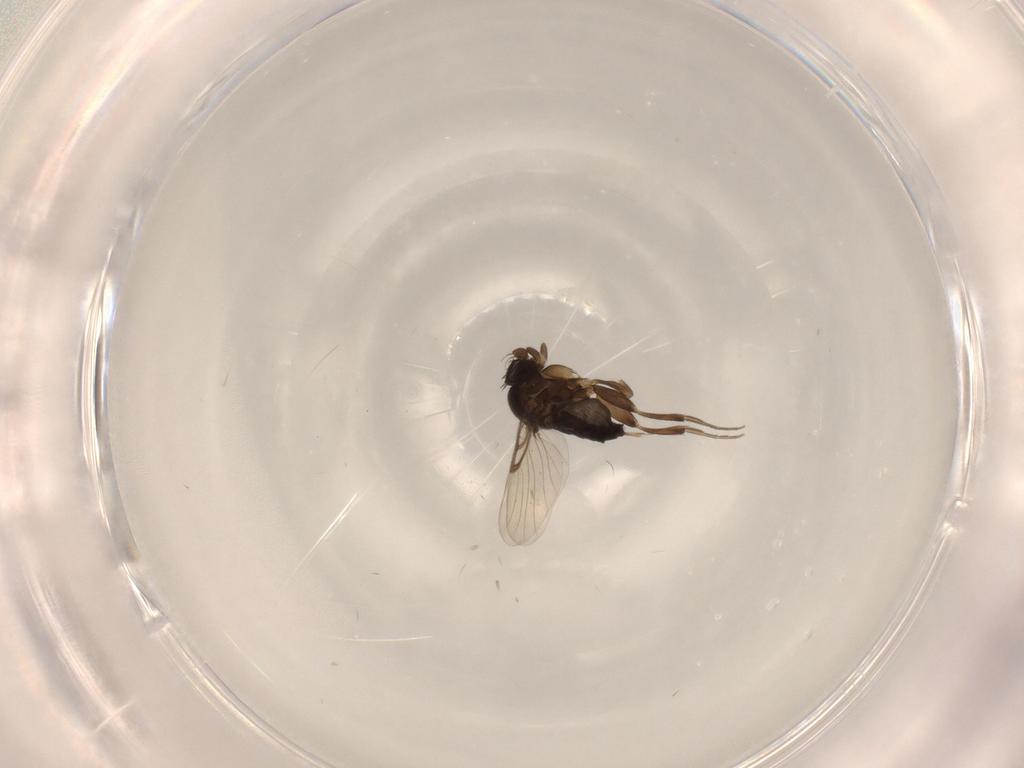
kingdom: Animalia
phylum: Arthropoda
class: Insecta
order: Diptera
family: Phoridae
